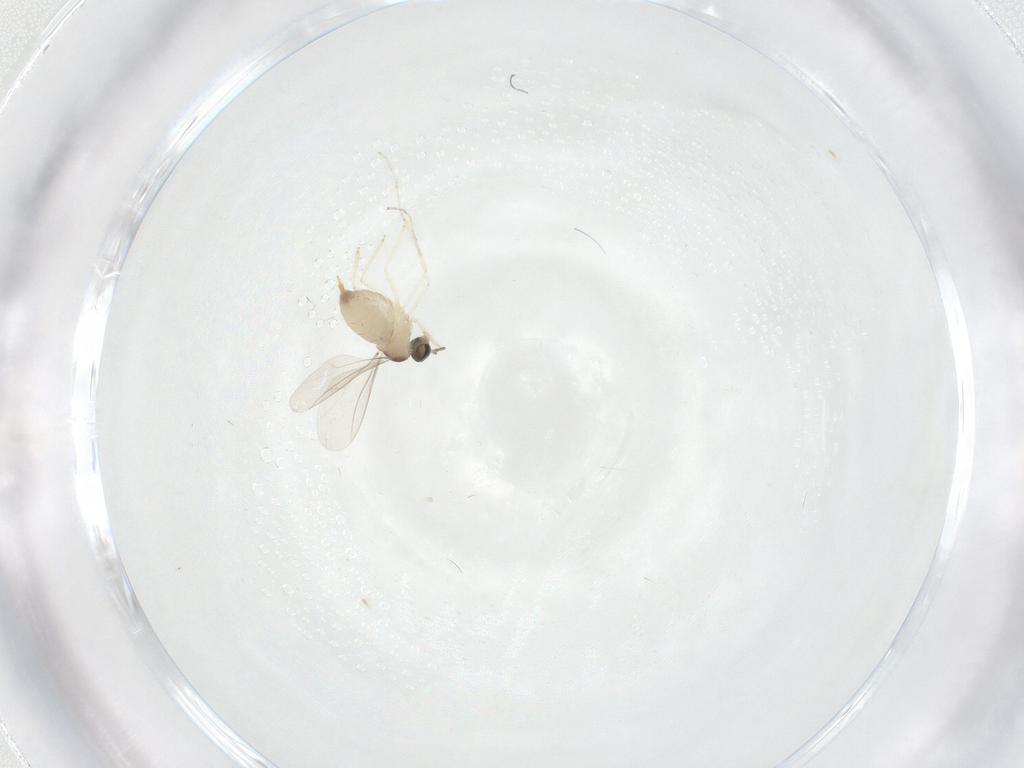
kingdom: Animalia
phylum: Arthropoda
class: Insecta
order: Diptera
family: Cecidomyiidae
